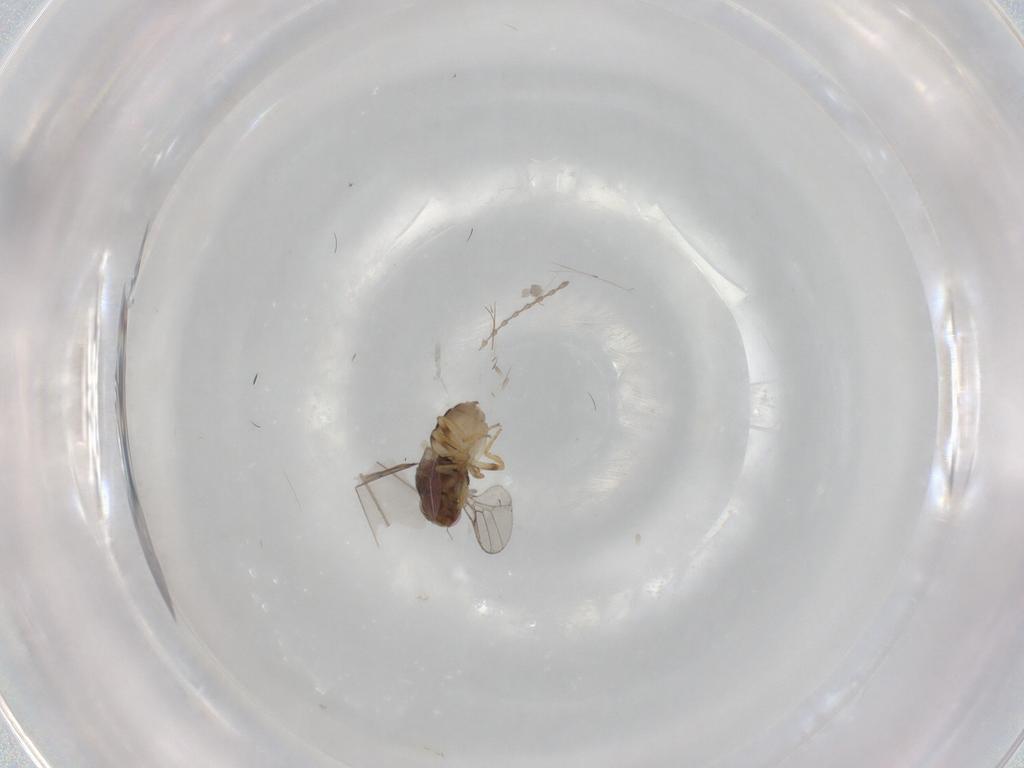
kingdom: Animalia
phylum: Arthropoda
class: Insecta
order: Diptera
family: Chloropidae
